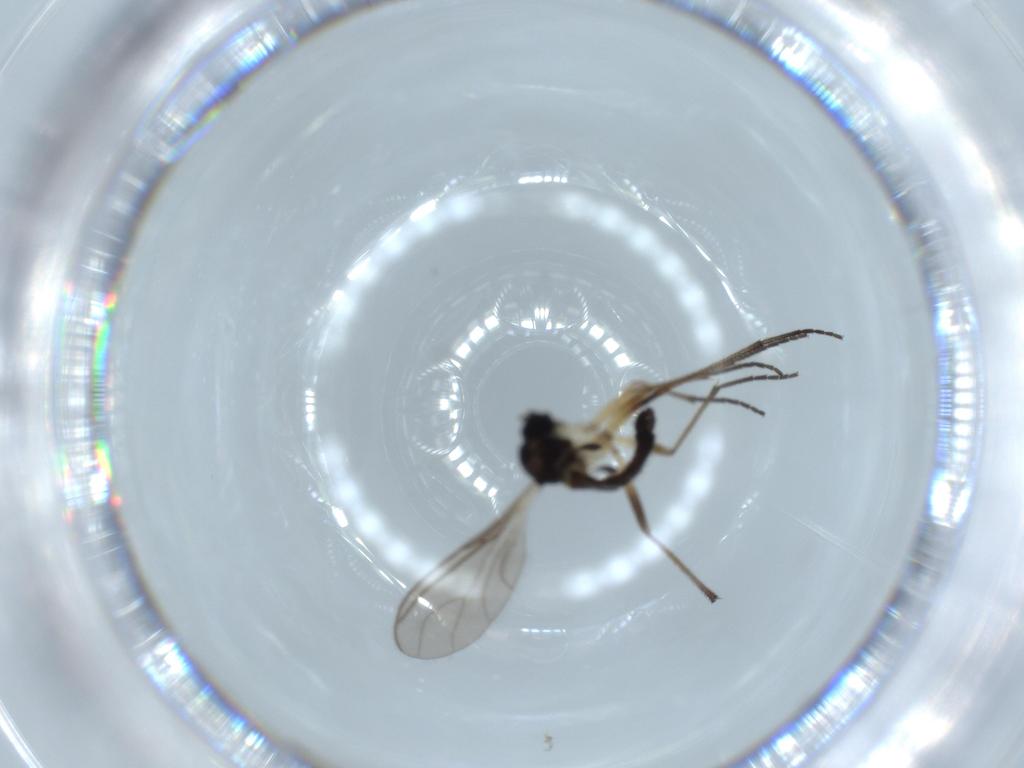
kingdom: Animalia
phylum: Arthropoda
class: Insecta
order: Diptera
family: Sciaridae
